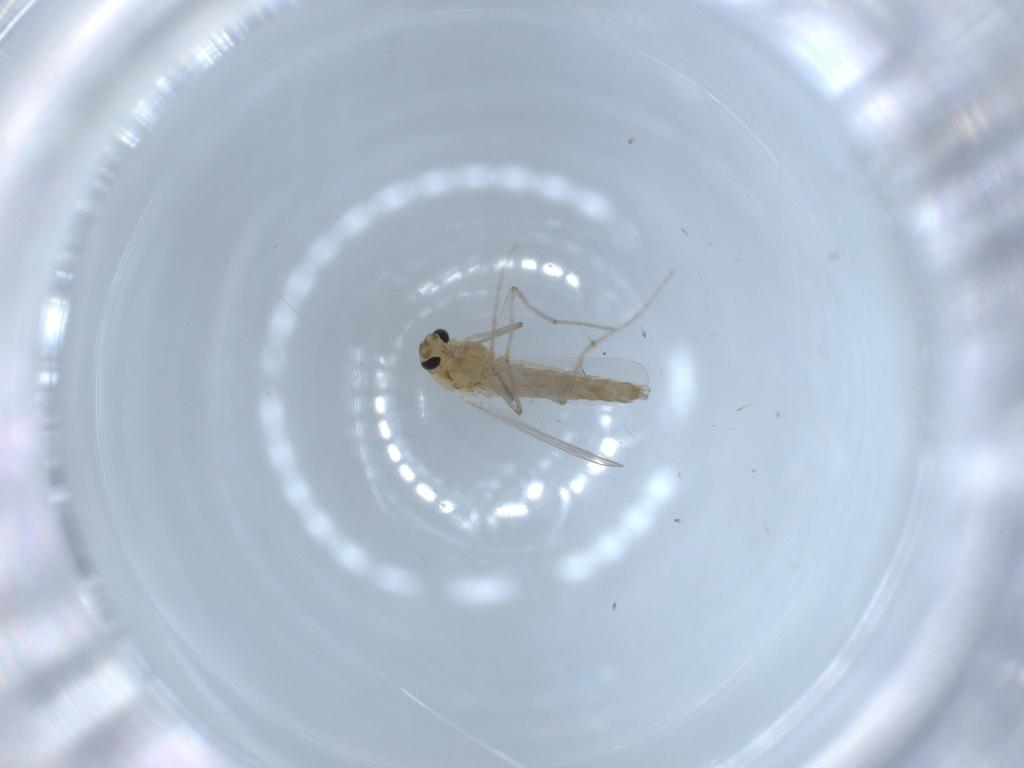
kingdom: Animalia
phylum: Arthropoda
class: Insecta
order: Diptera
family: Chironomidae
